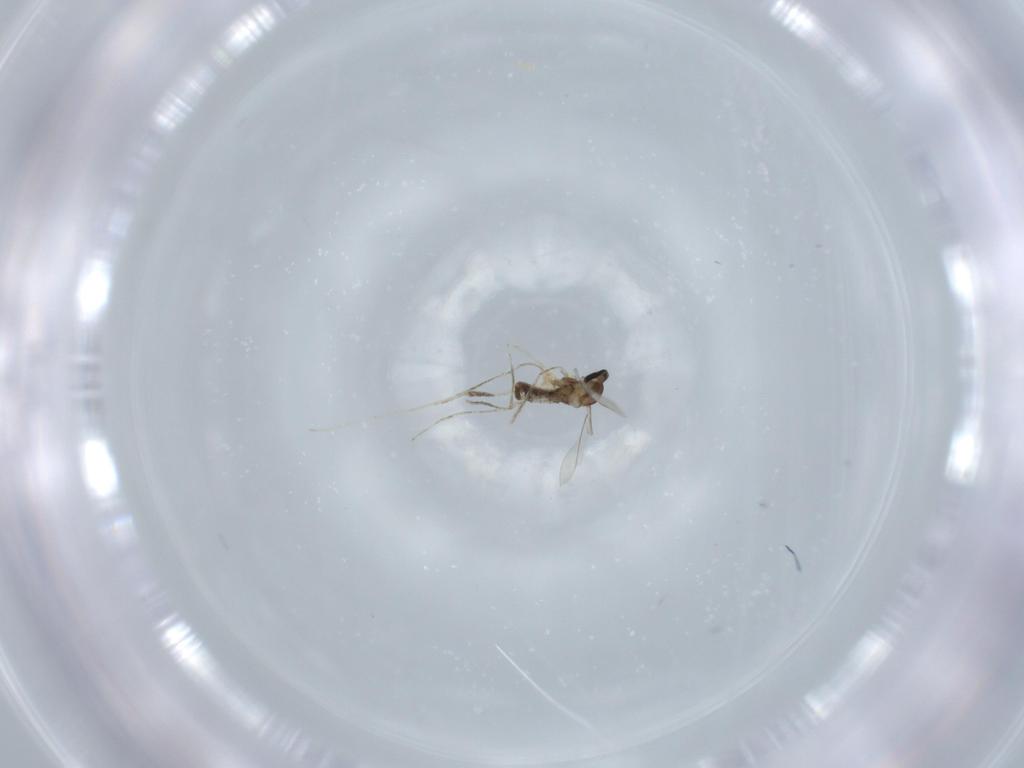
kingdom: Animalia
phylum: Arthropoda
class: Insecta
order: Diptera
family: Cecidomyiidae
